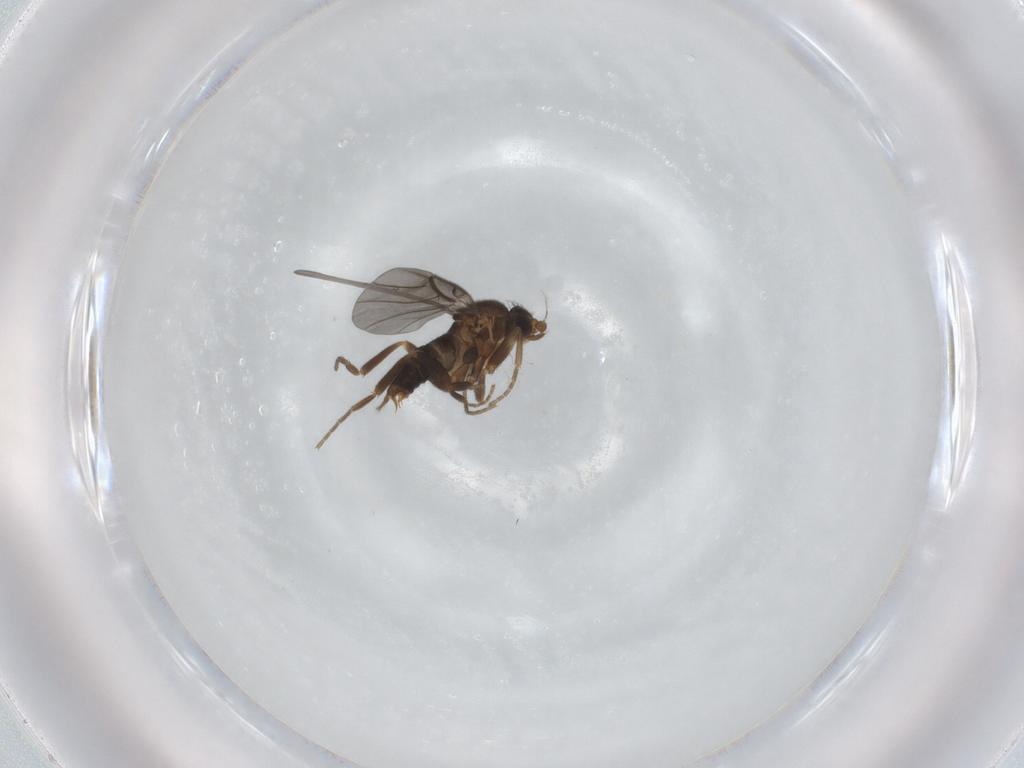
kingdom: Animalia
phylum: Arthropoda
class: Insecta
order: Diptera
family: Phoridae
